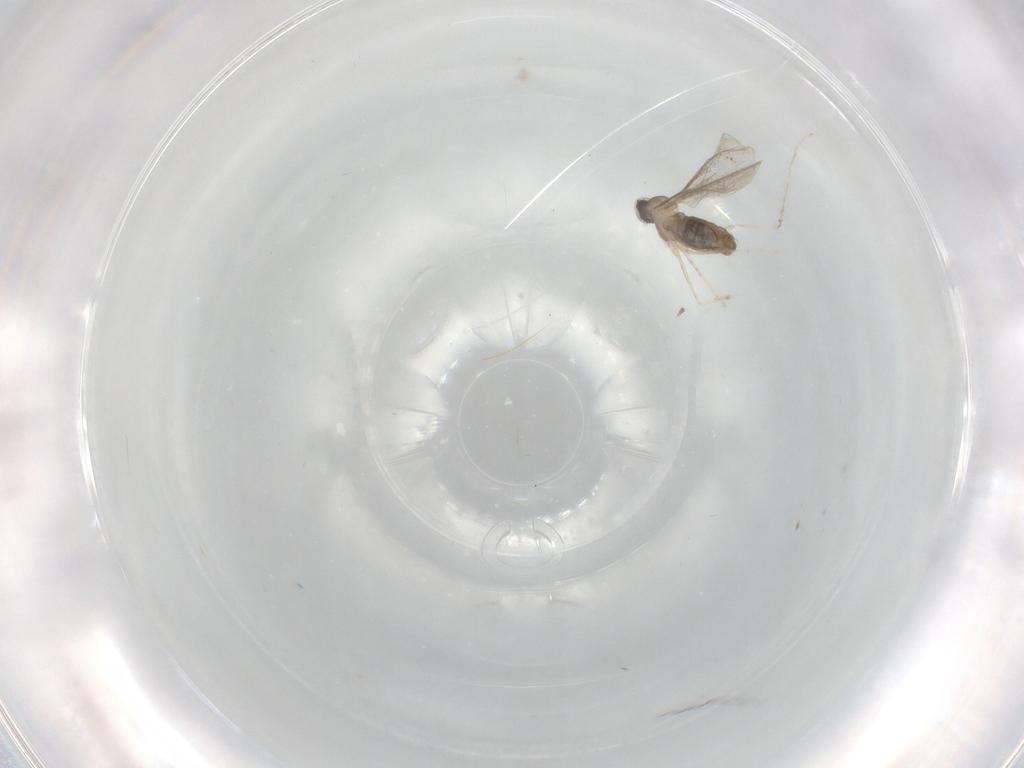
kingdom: Animalia
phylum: Arthropoda
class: Insecta
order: Diptera
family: Cecidomyiidae
